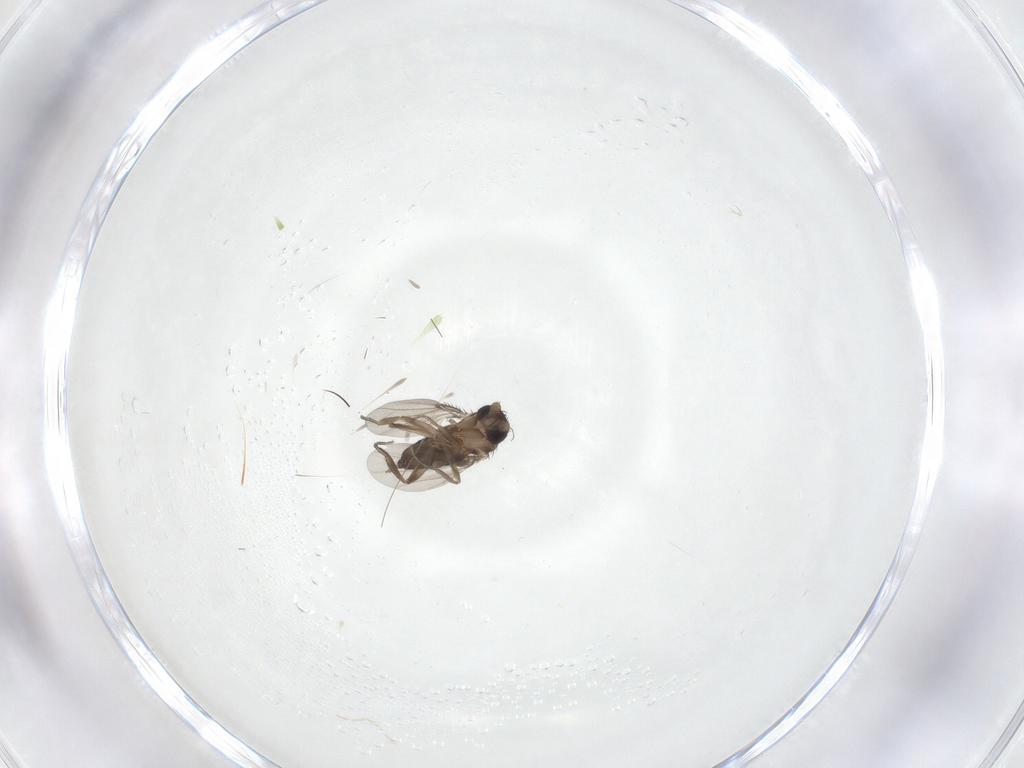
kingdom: Animalia
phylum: Arthropoda
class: Insecta
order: Diptera
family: Phoridae
